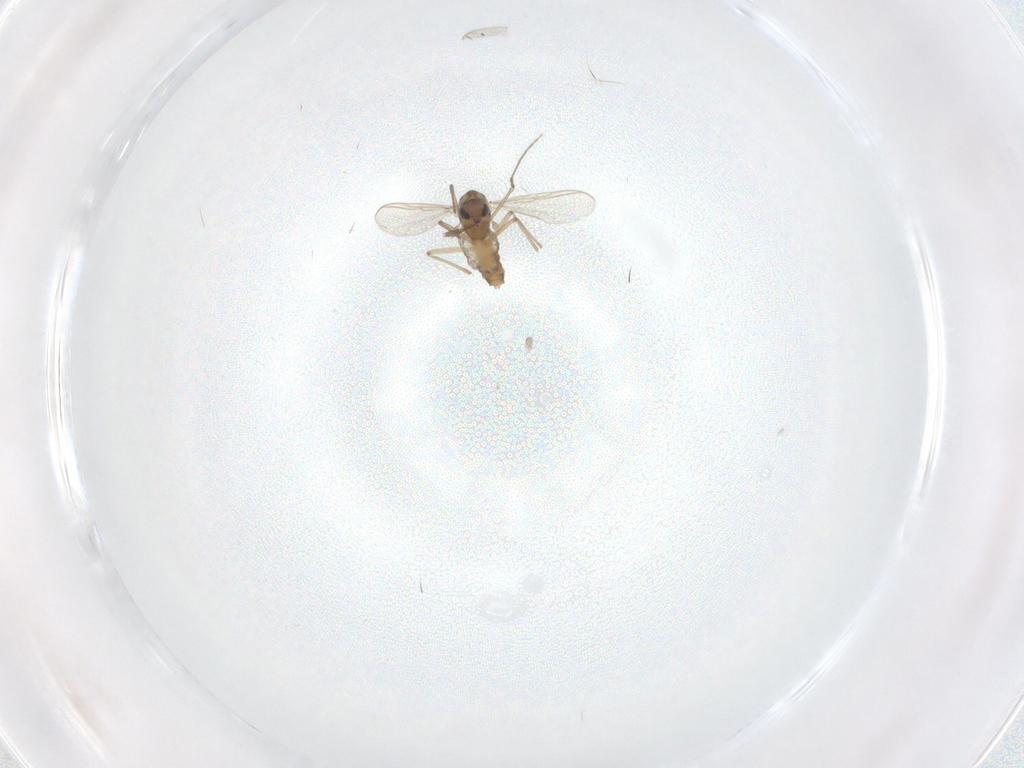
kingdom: Animalia
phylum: Arthropoda
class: Insecta
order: Diptera
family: Chironomidae
